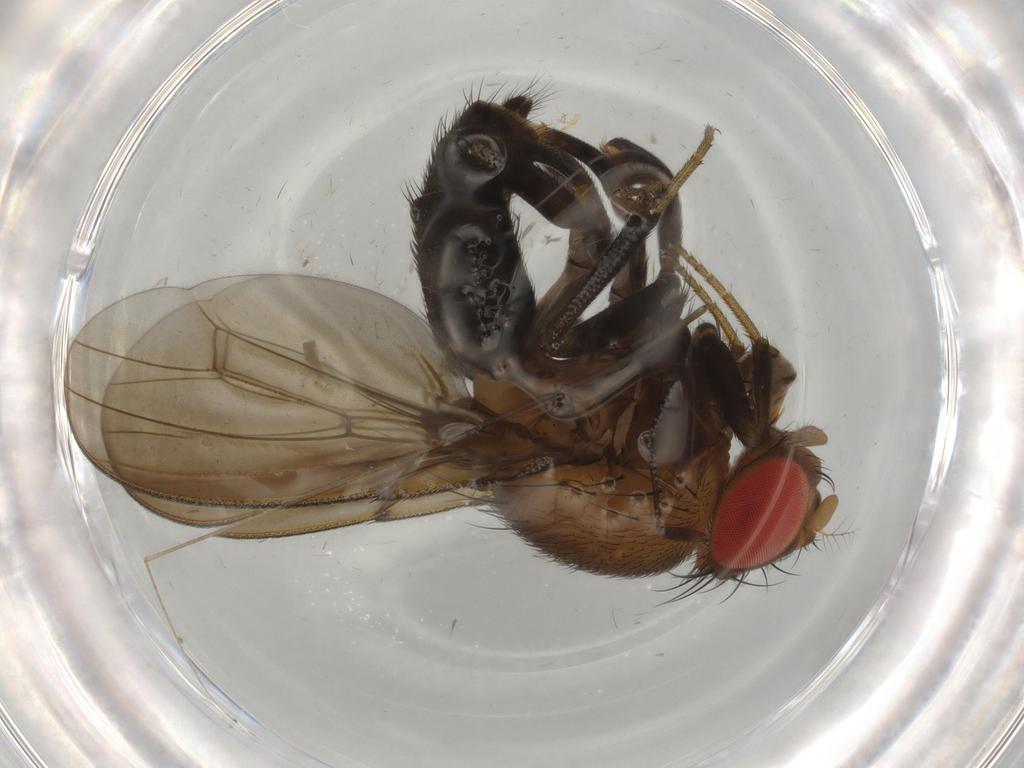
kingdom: Animalia
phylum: Arthropoda
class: Insecta
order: Diptera
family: Drosophilidae
